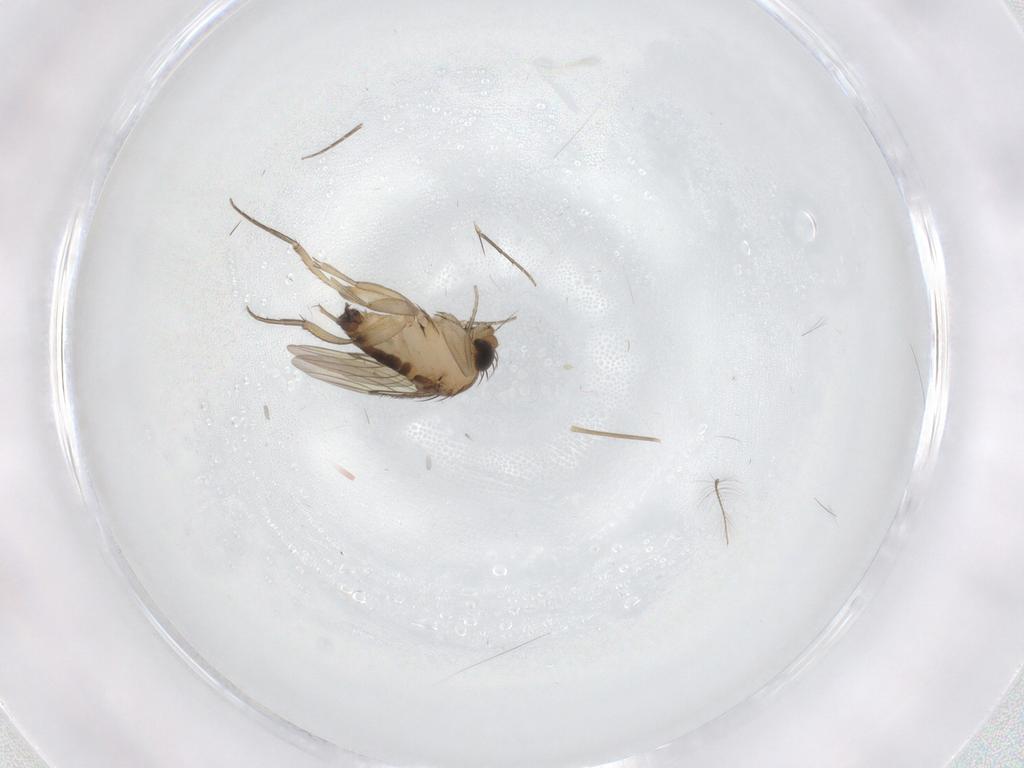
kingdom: Animalia
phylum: Arthropoda
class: Insecta
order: Diptera
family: Phoridae
